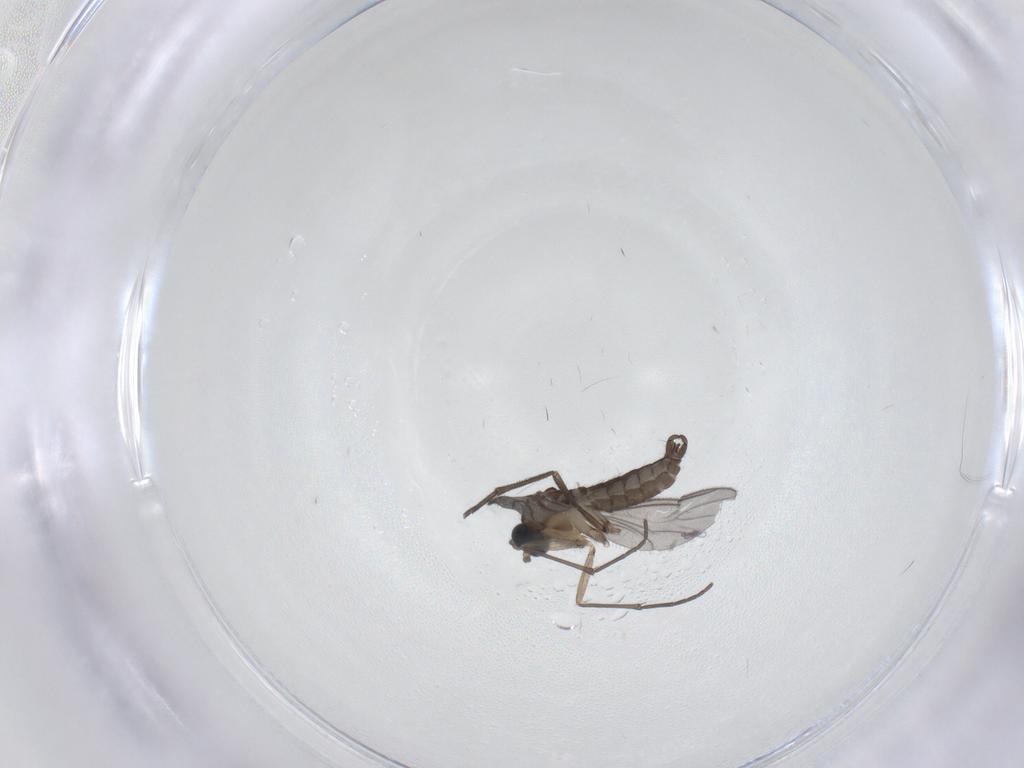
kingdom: Animalia
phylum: Arthropoda
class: Insecta
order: Diptera
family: Sciaridae
